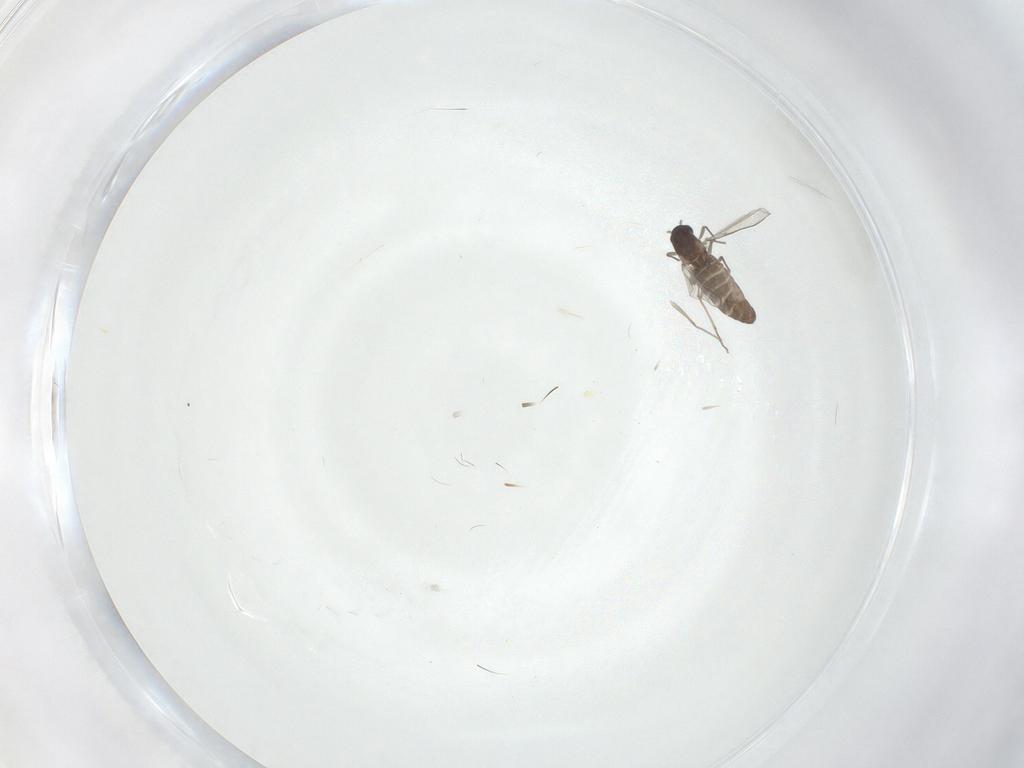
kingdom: Animalia
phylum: Arthropoda
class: Insecta
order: Diptera
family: Chironomidae
